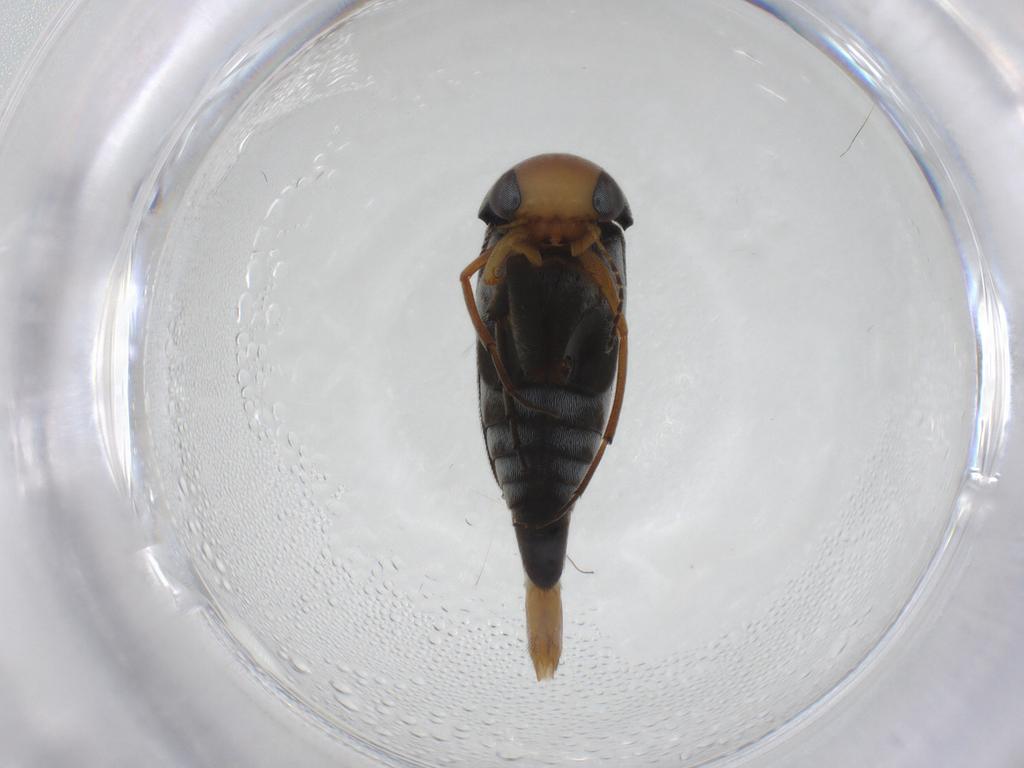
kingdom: Animalia
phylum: Arthropoda
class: Insecta
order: Coleoptera
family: Mordellidae
